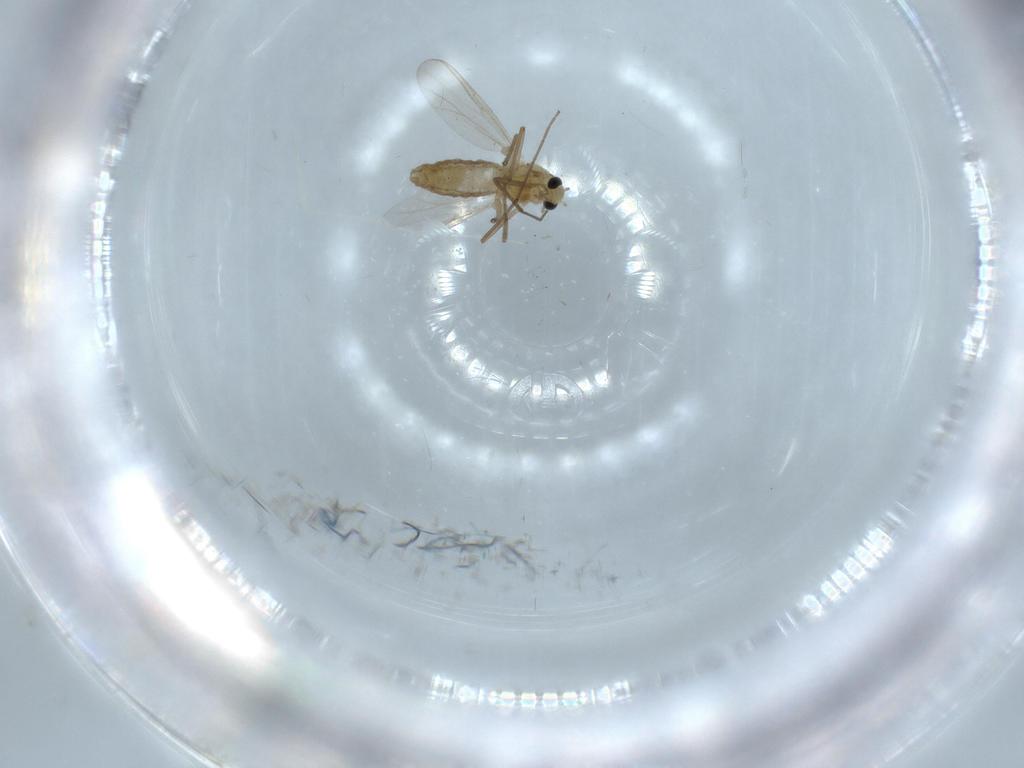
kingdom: Animalia
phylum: Arthropoda
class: Insecta
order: Diptera
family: Chironomidae
